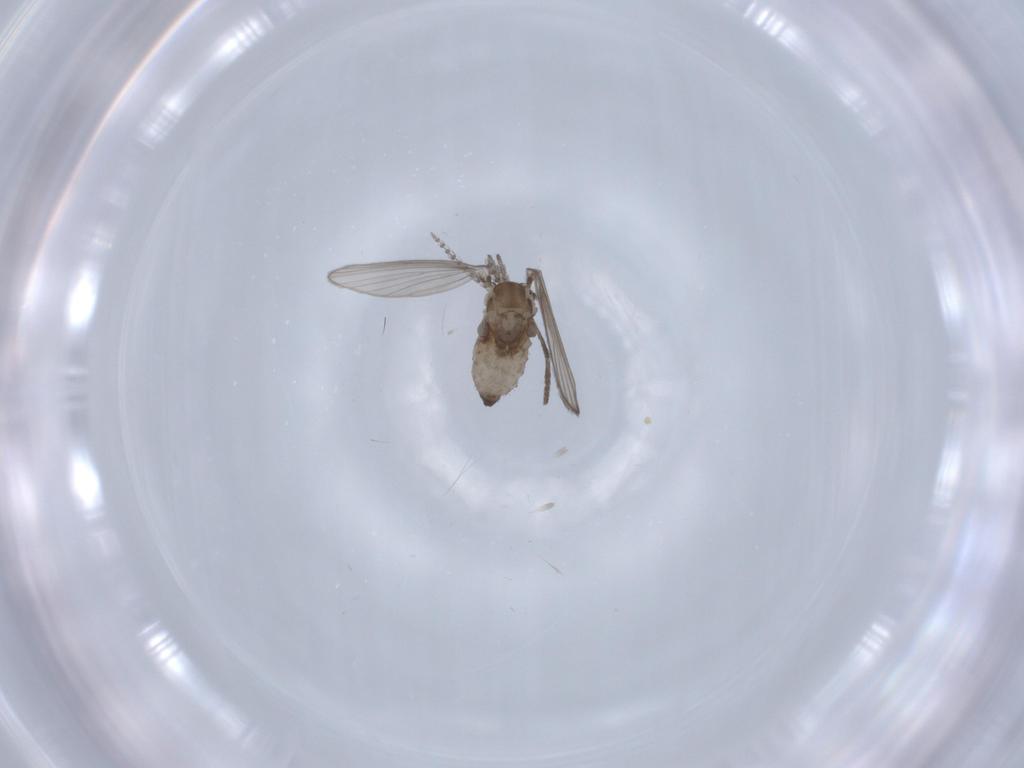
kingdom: Animalia
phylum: Arthropoda
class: Insecta
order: Diptera
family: Psychodidae
